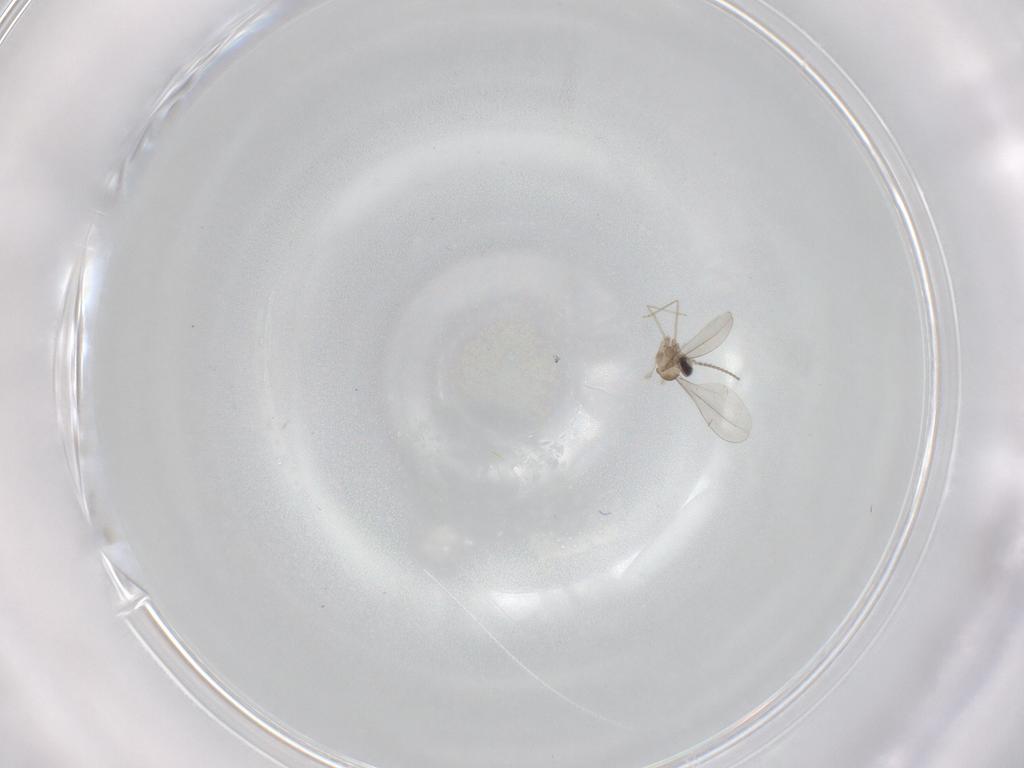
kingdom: Animalia
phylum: Arthropoda
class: Insecta
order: Diptera
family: Cecidomyiidae
